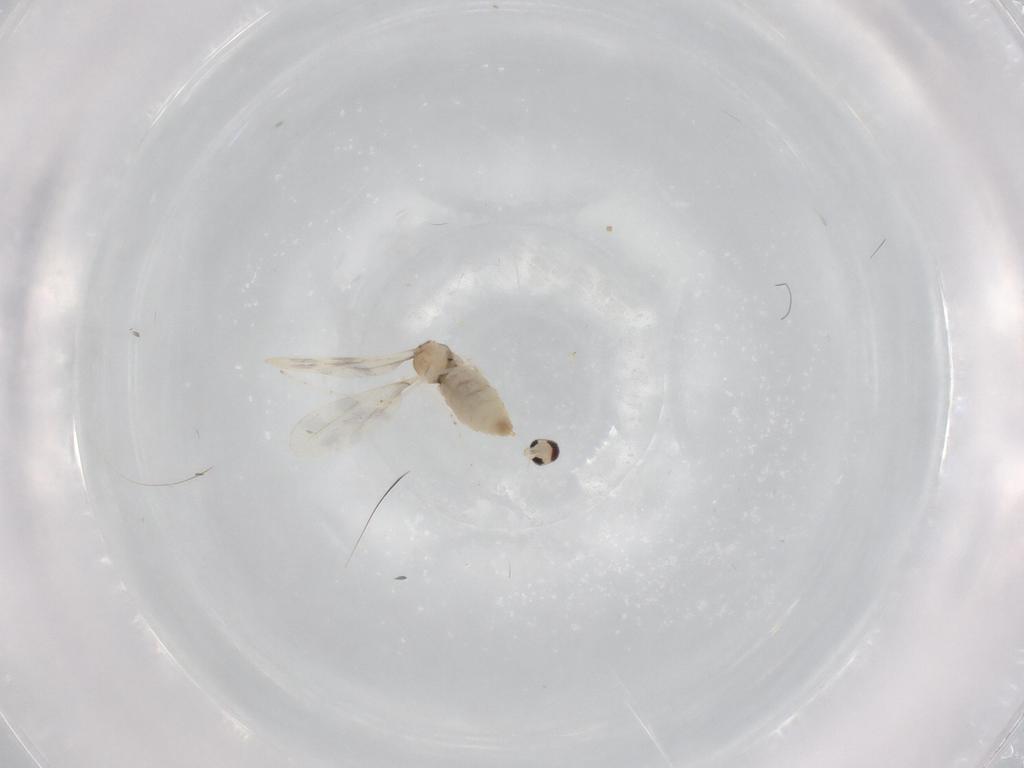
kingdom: Animalia
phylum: Arthropoda
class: Insecta
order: Diptera
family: Cecidomyiidae
